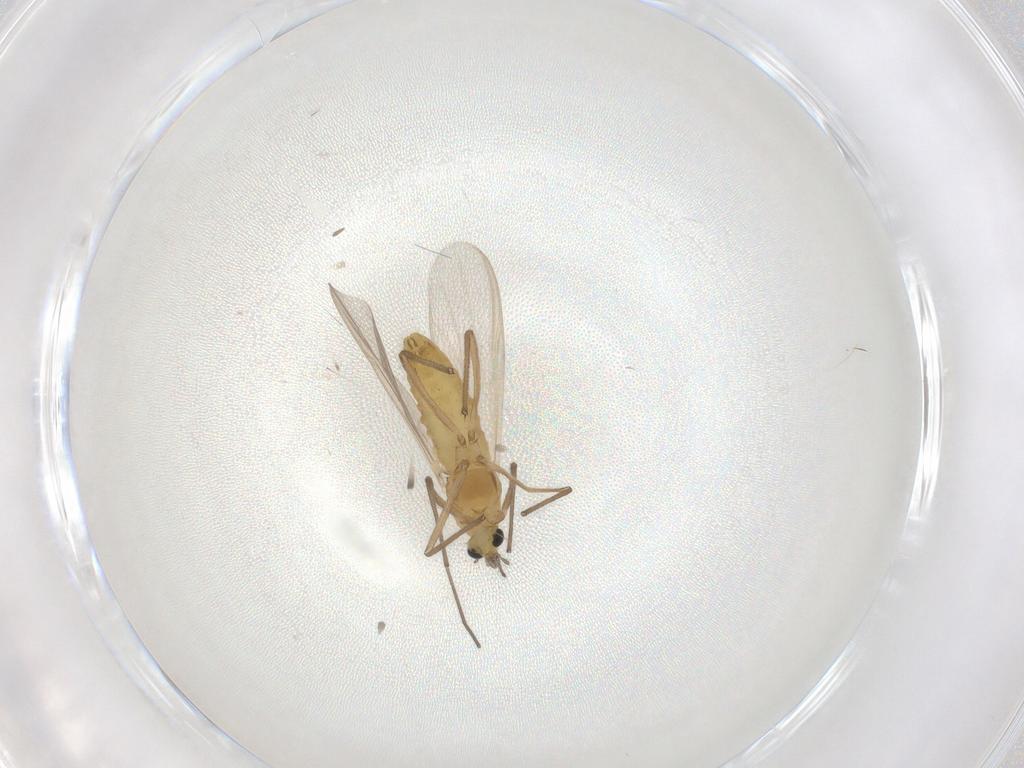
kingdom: Animalia
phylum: Arthropoda
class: Insecta
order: Diptera
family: Chironomidae
